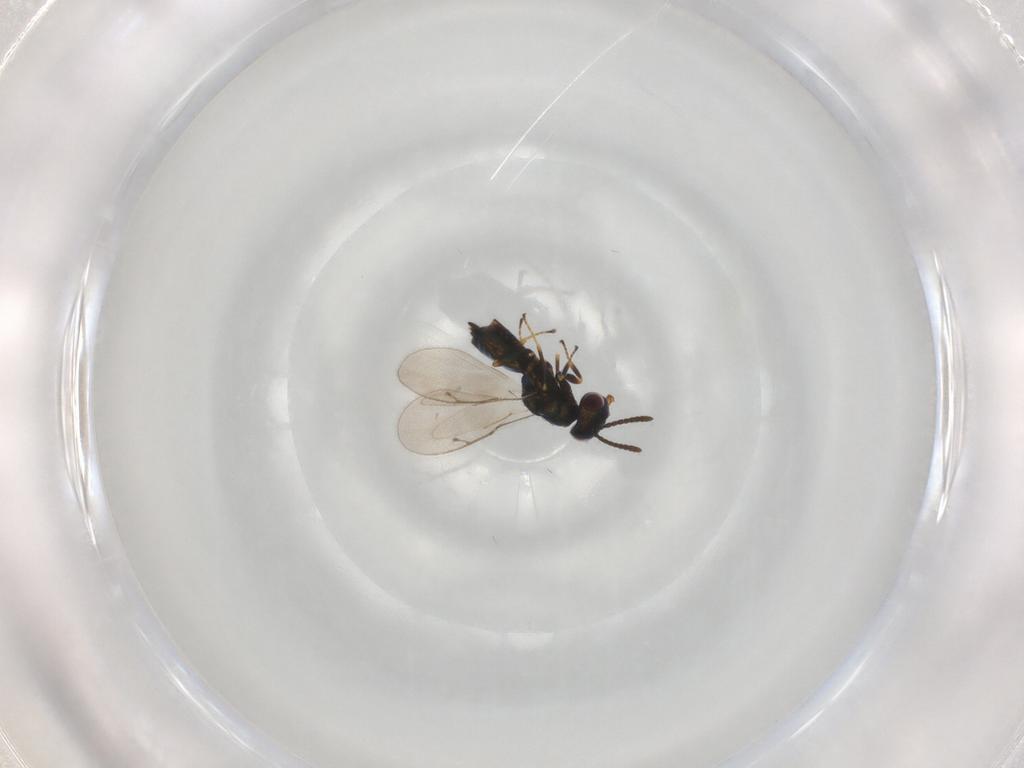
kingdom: Animalia
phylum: Arthropoda
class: Insecta
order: Hymenoptera
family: Pteromalidae
